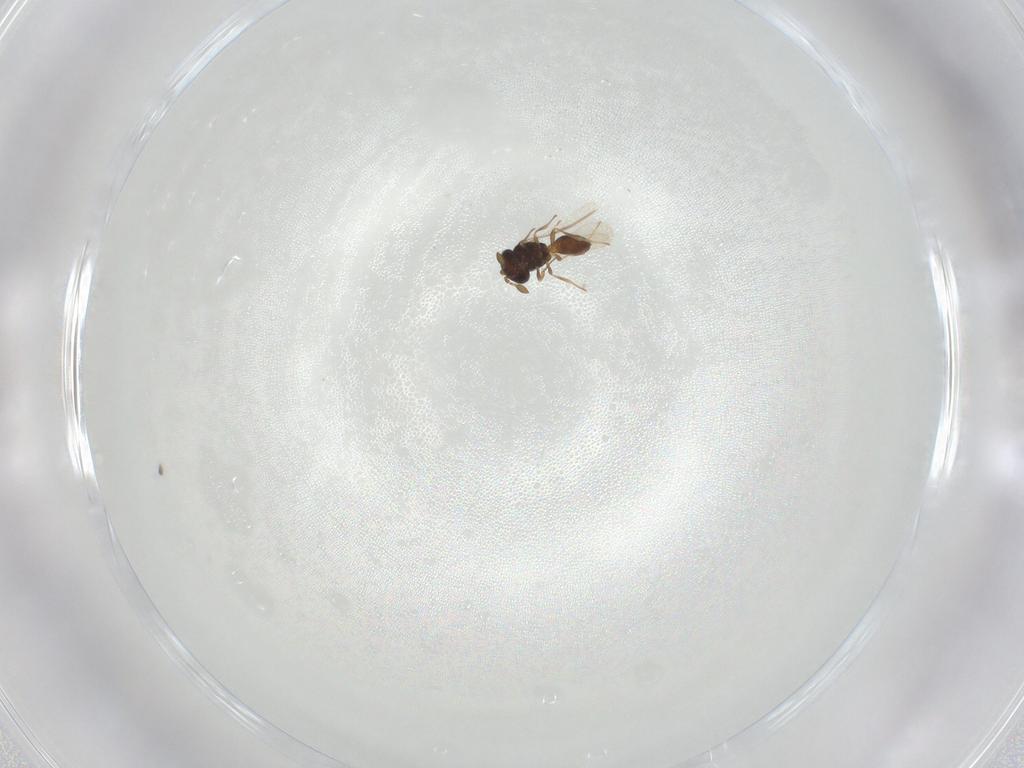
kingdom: Animalia
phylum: Arthropoda
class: Insecta
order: Hymenoptera
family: Scelionidae
